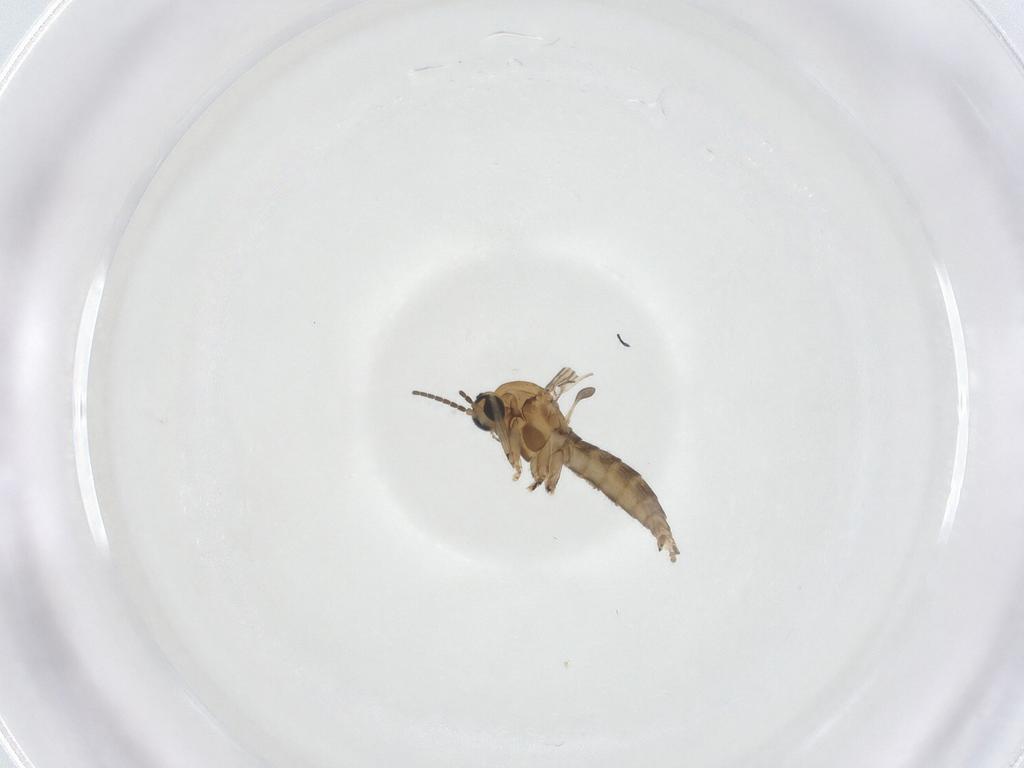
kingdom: Animalia
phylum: Arthropoda
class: Insecta
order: Diptera
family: Sciaridae
